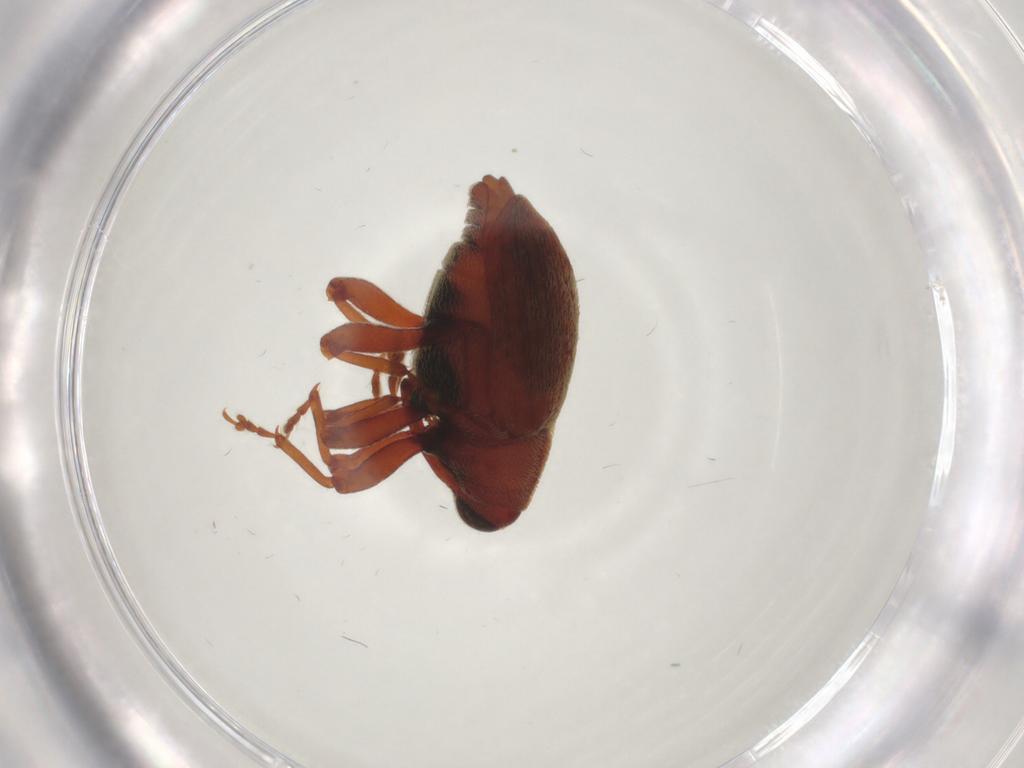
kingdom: Animalia
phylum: Arthropoda
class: Insecta
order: Coleoptera
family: Curculionidae
